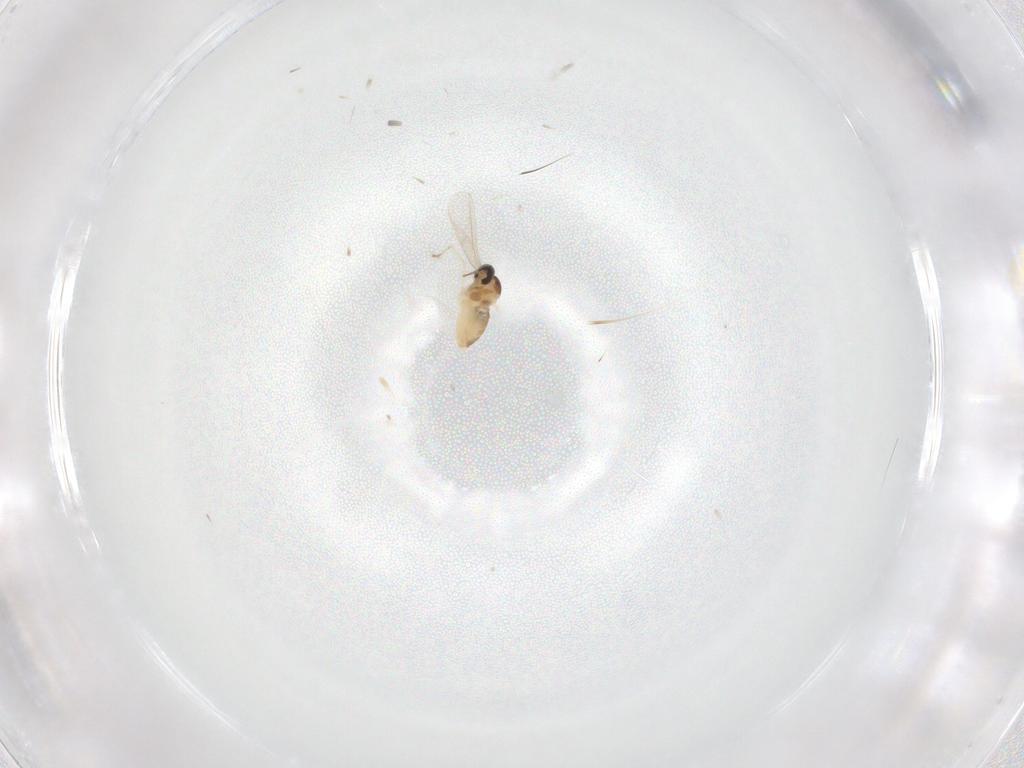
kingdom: Animalia
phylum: Arthropoda
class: Insecta
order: Diptera
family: Cecidomyiidae
